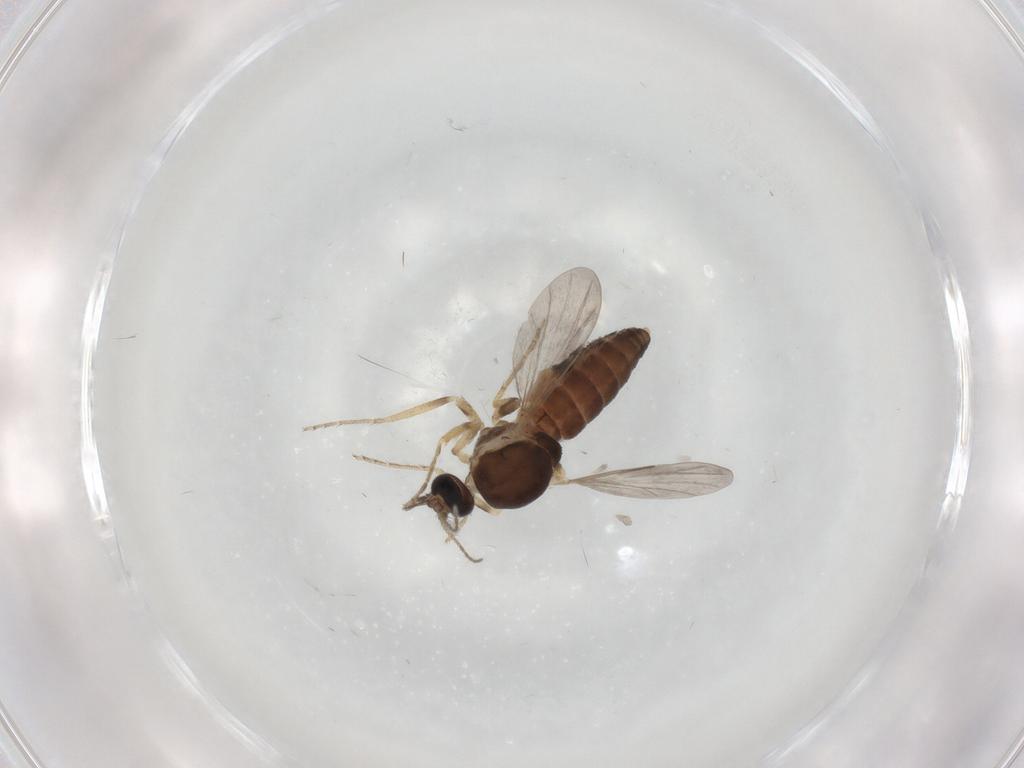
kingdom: Animalia
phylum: Arthropoda
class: Insecta
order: Diptera
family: Ceratopogonidae
